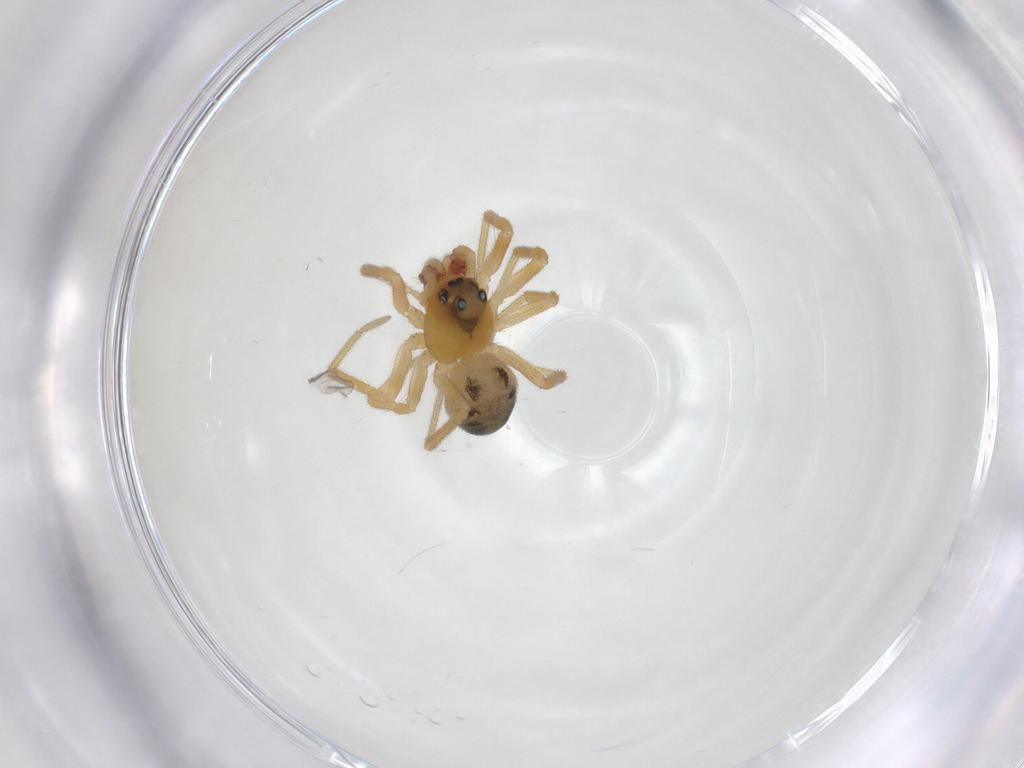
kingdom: Animalia
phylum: Arthropoda
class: Arachnida
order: Araneae
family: Linyphiidae
